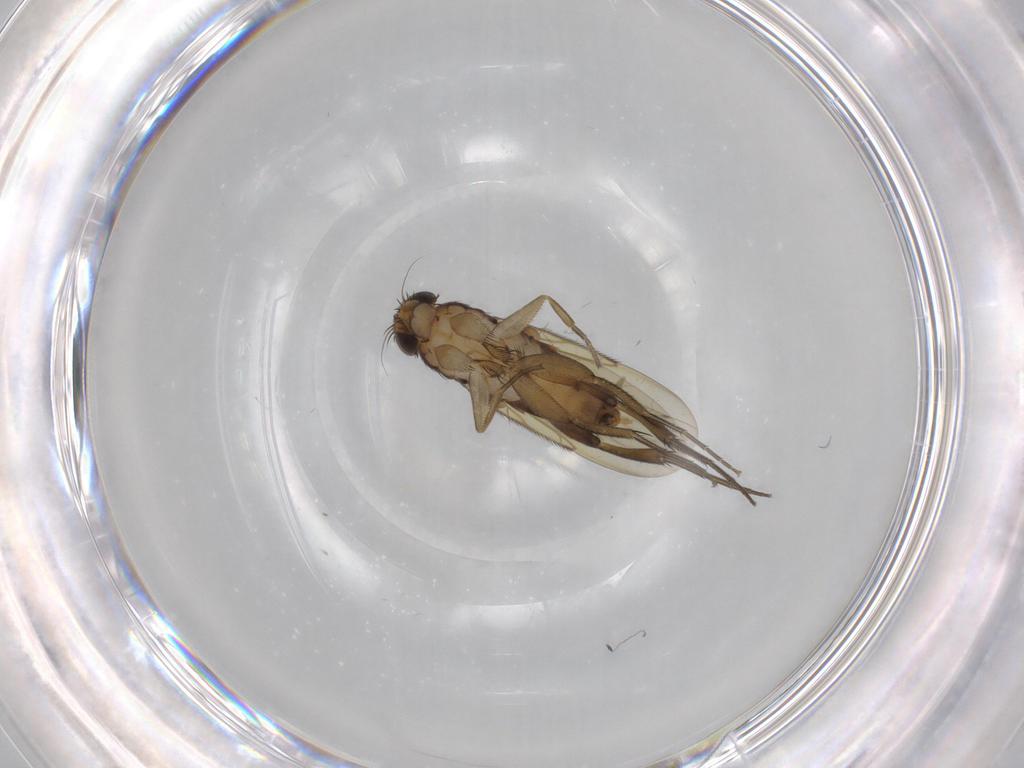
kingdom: Animalia
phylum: Arthropoda
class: Insecta
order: Diptera
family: Phoridae
